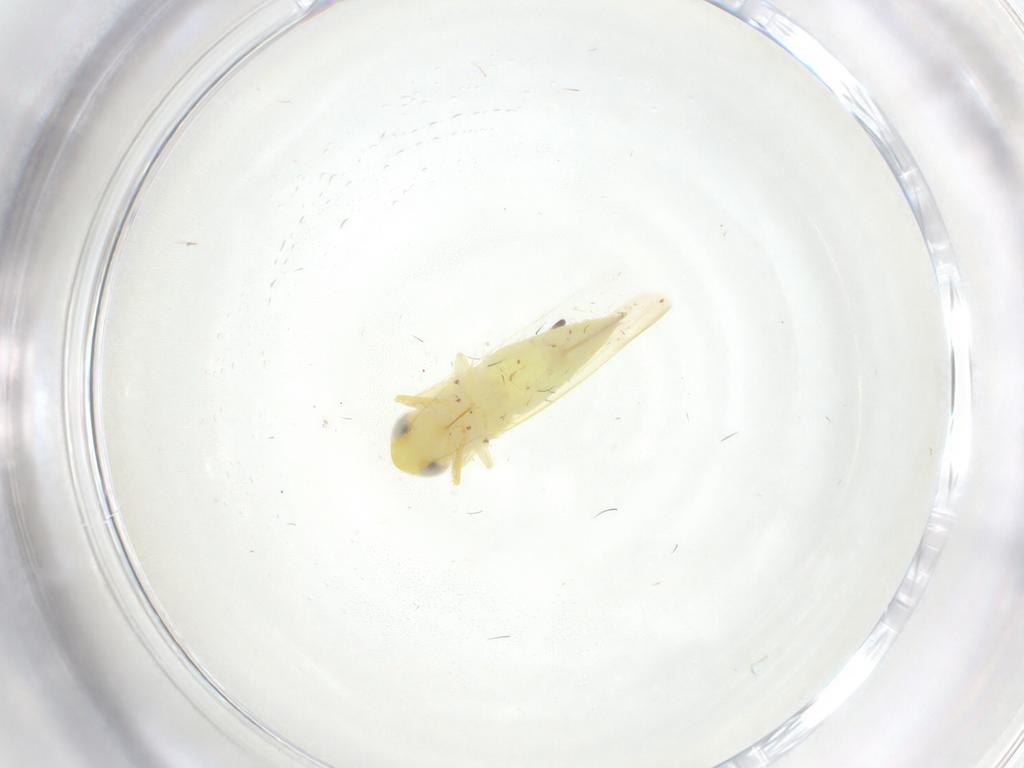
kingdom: Animalia
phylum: Arthropoda
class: Insecta
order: Hemiptera
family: Cicadellidae
